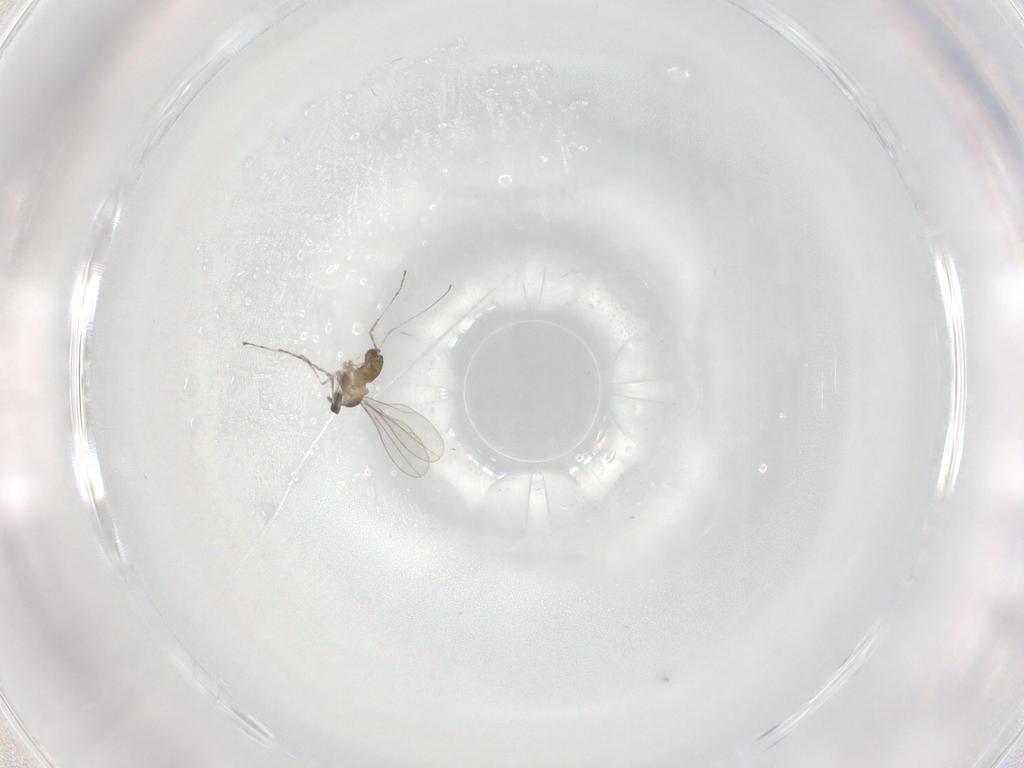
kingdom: Animalia
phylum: Arthropoda
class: Insecta
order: Diptera
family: Cecidomyiidae
